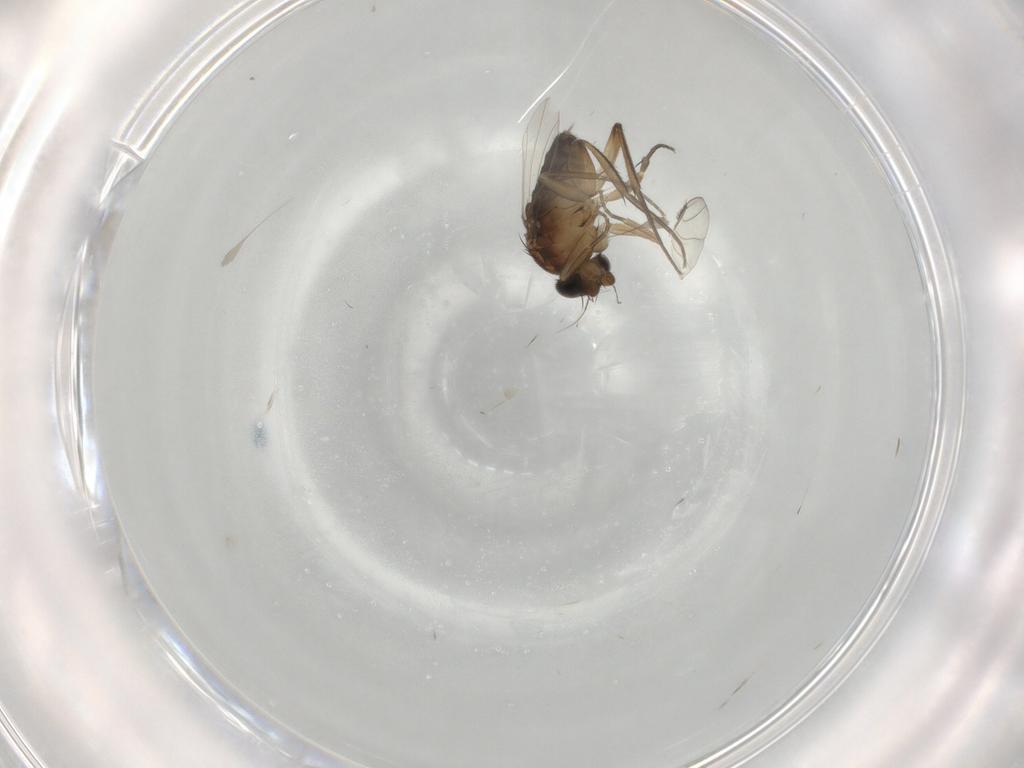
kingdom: Animalia
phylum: Arthropoda
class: Insecta
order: Diptera
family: Phoridae
